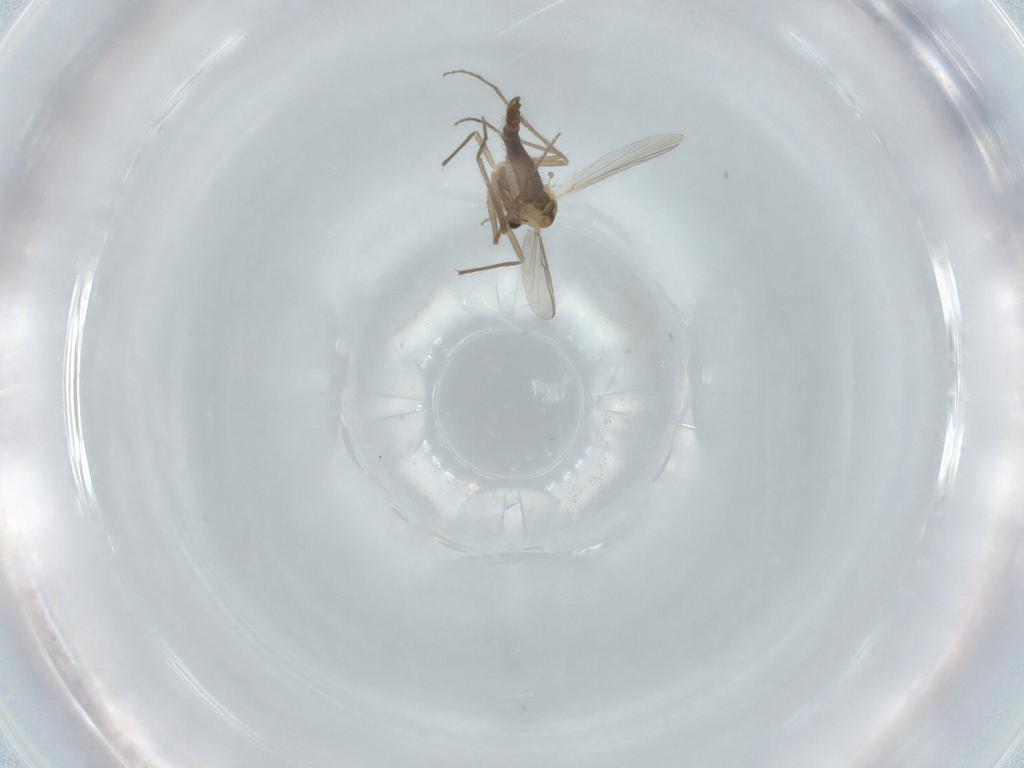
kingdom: Animalia
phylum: Arthropoda
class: Insecta
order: Diptera
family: Chironomidae
